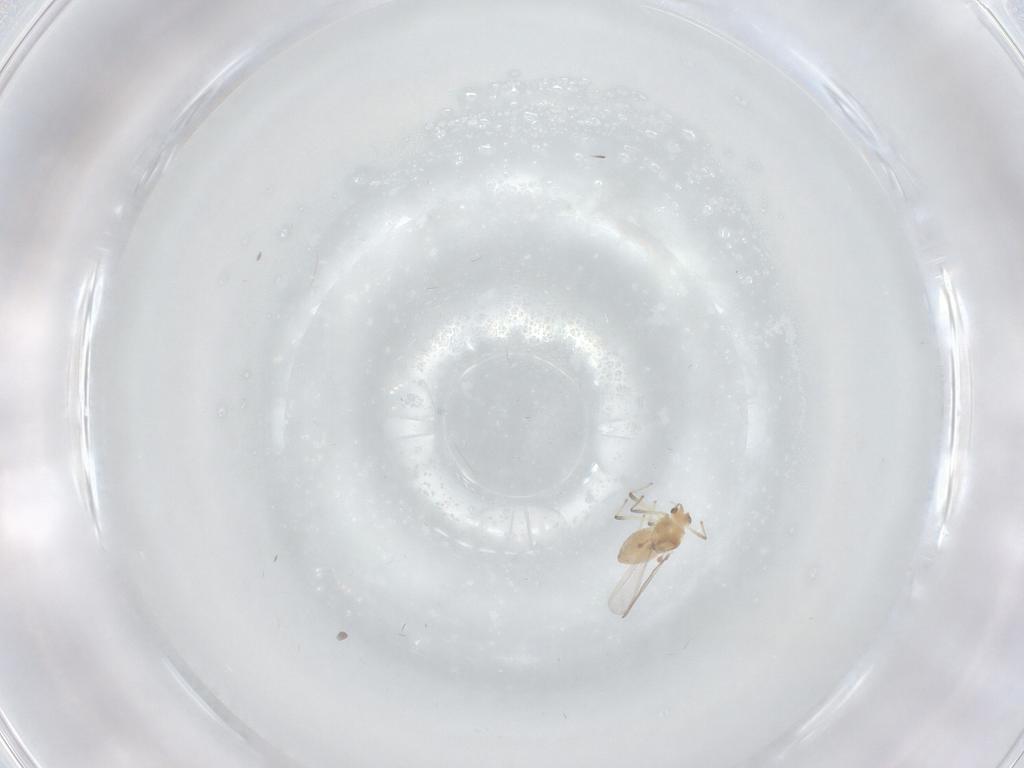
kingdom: Animalia
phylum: Arthropoda
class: Insecta
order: Diptera
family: Chironomidae
